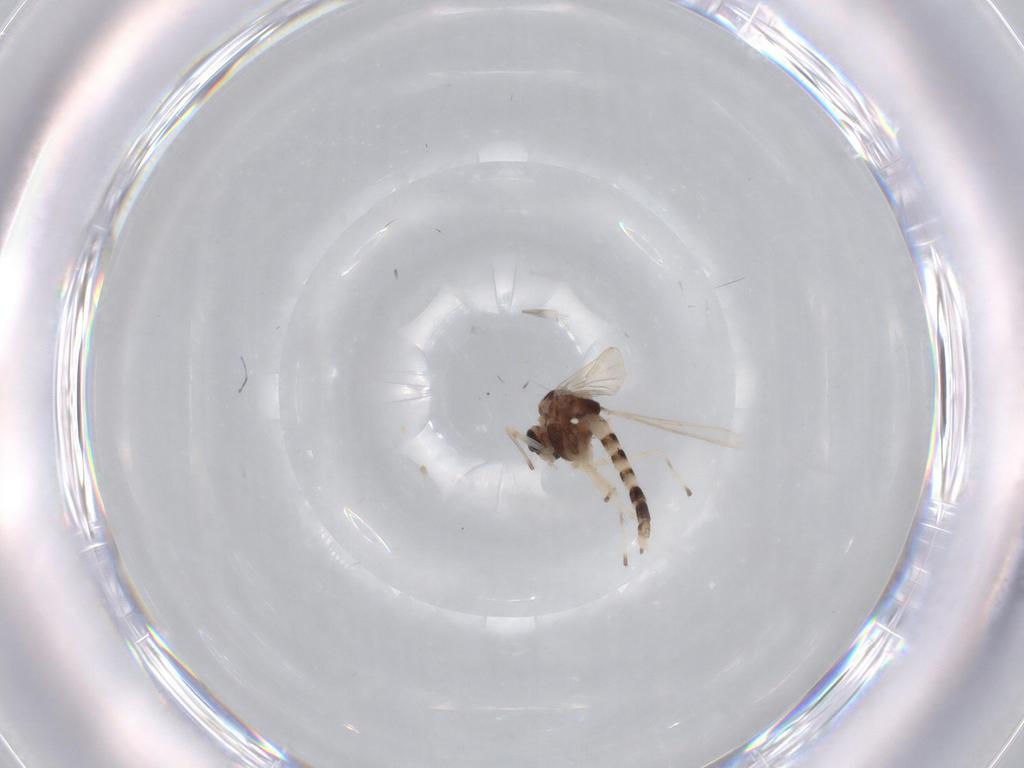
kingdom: Animalia
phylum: Arthropoda
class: Insecta
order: Diptera
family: Chironomidae
